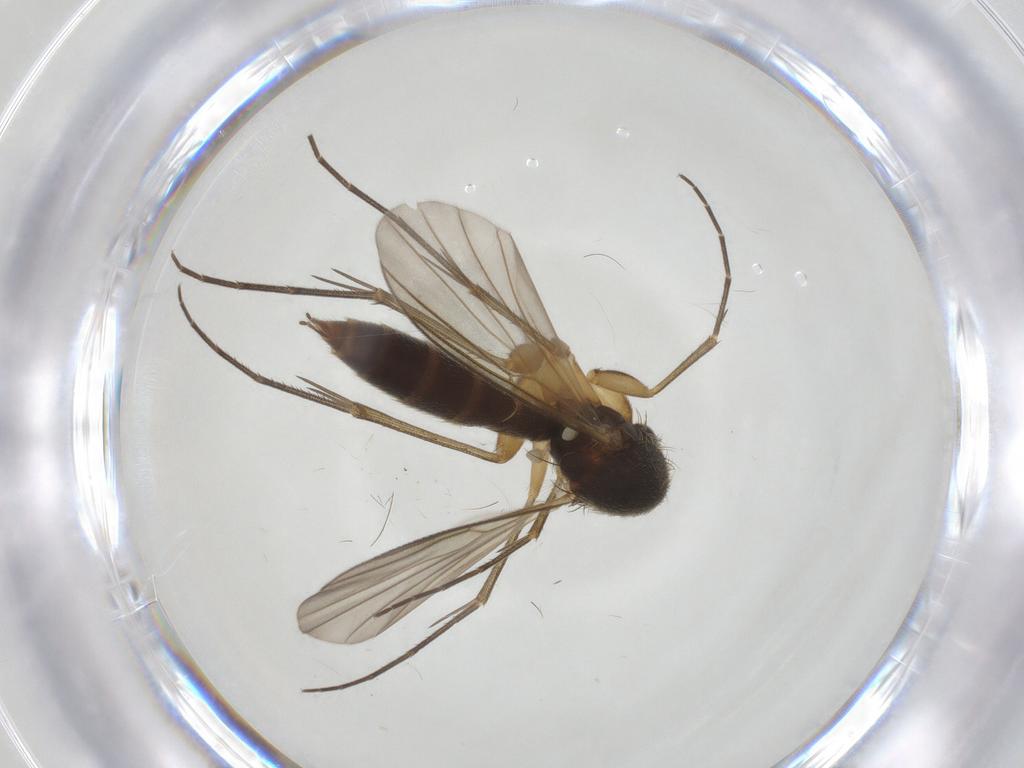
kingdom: Animalia
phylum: Arthropoda
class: Insecta
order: Diptera
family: Mycetophilidae
